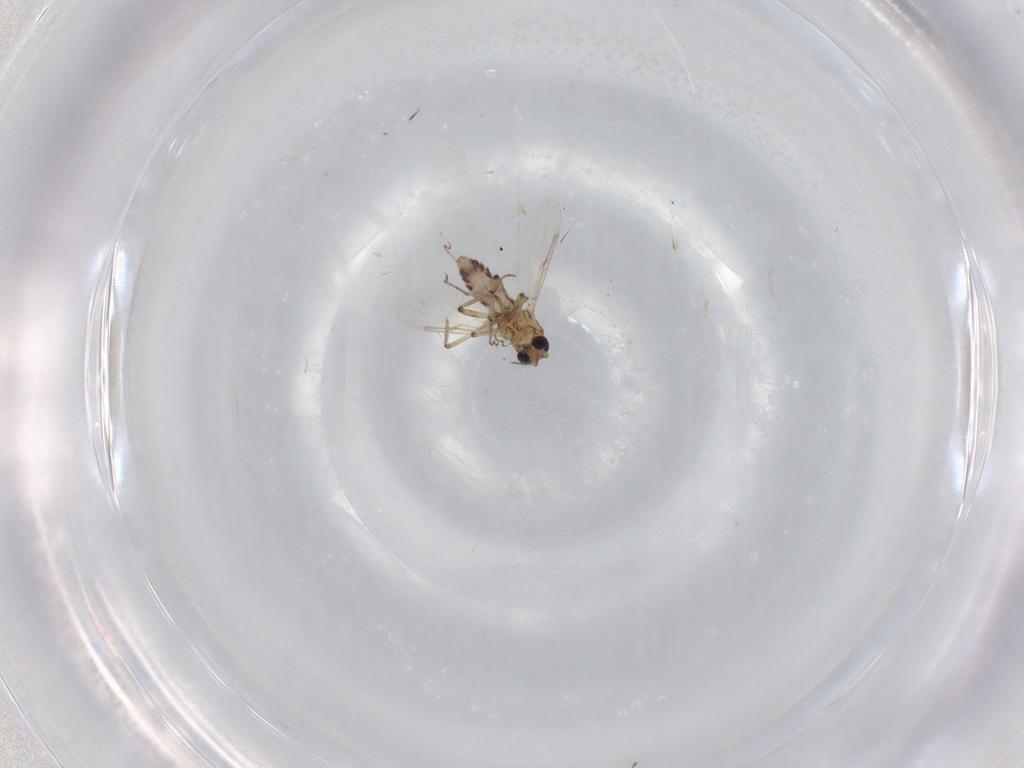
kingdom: Animalia
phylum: Arthropoda
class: Insecta
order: Diptera
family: Ceratopogonidae
